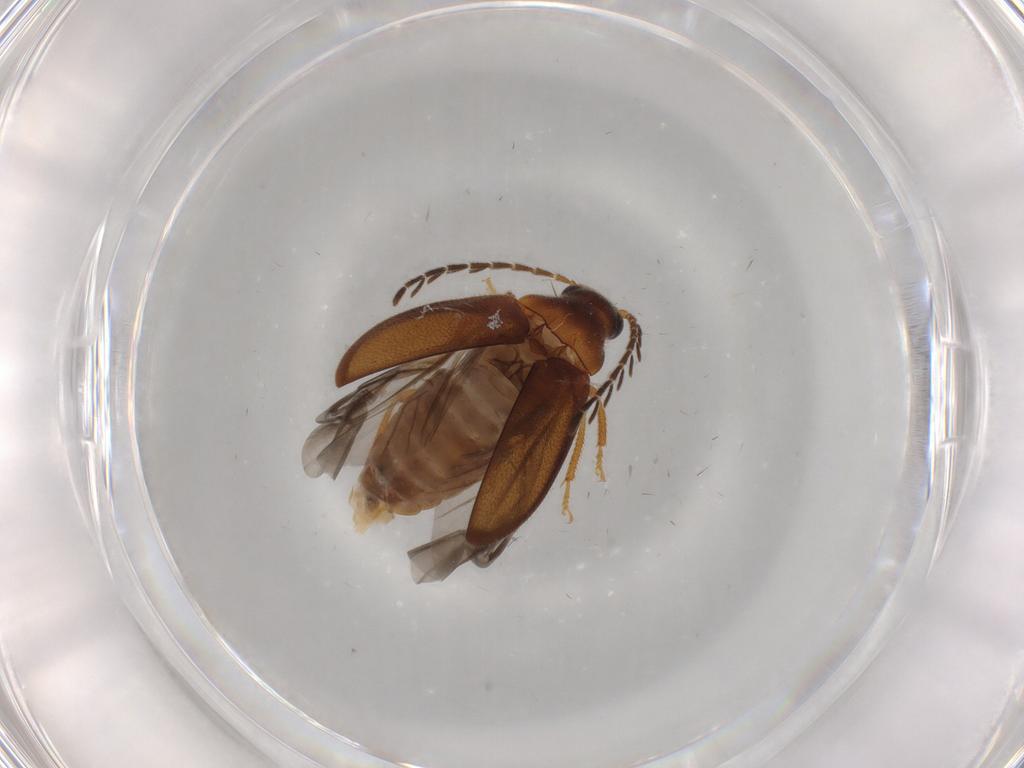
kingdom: Animalia
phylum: Arthropoda
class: Insecta
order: Coleoptera
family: Ptilodactylidae
